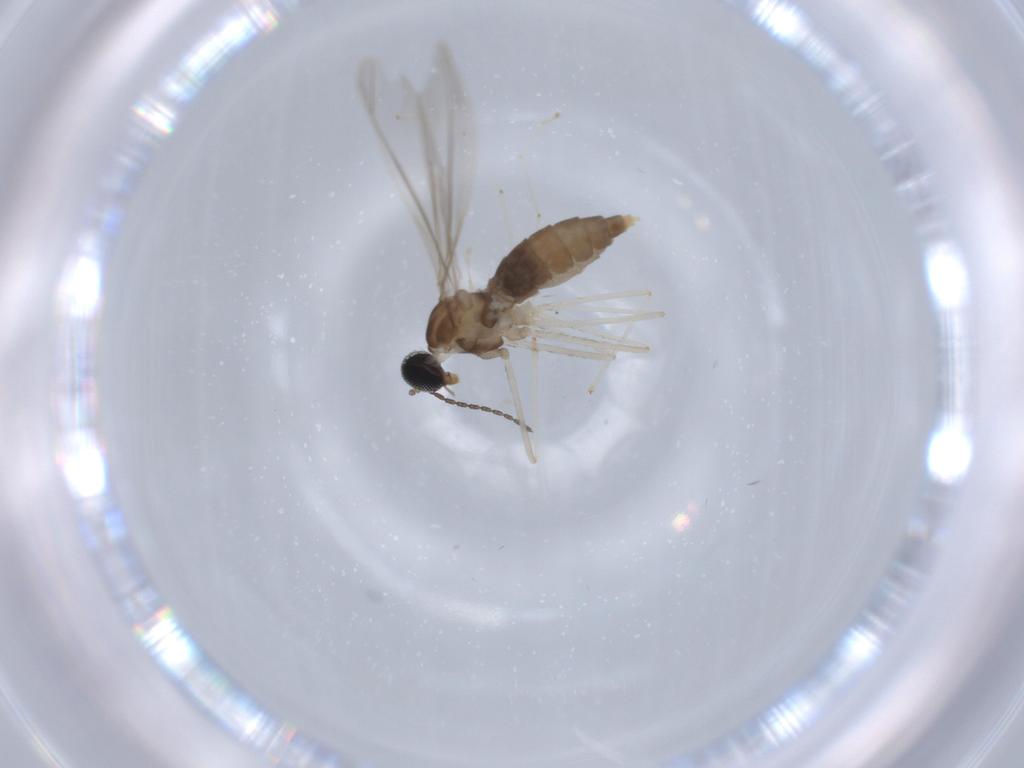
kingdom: Animalia
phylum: Arthropoda
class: Insecta
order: Diptera
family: Cecidomyiidae
